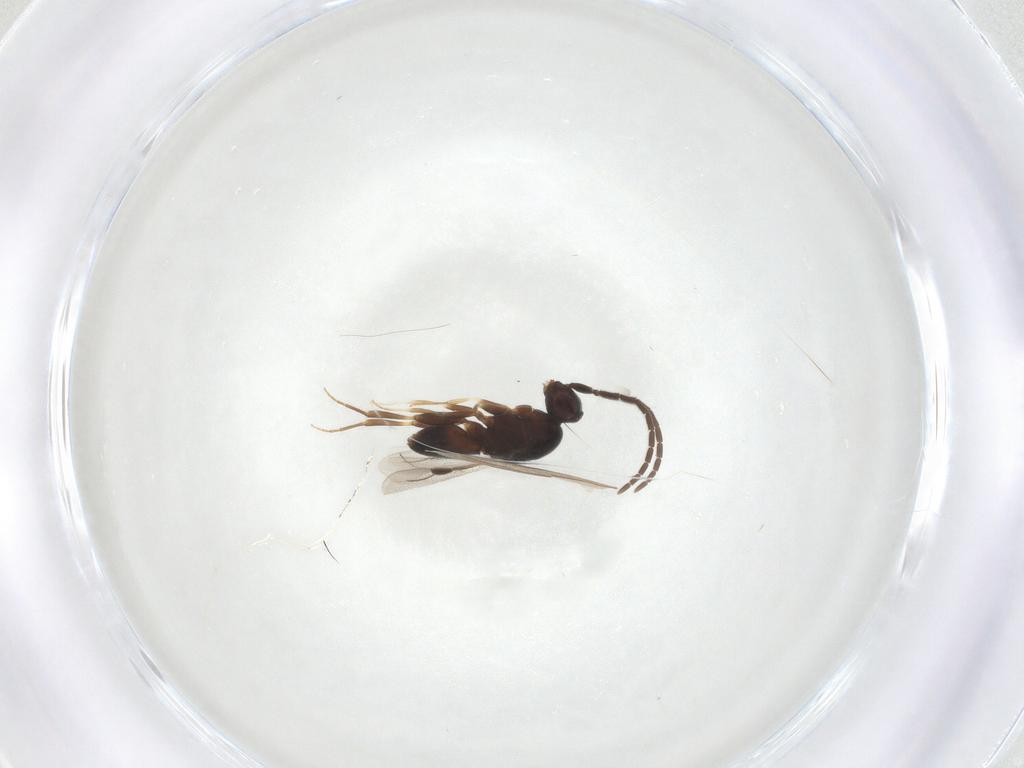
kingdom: Animalia
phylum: Arthropoda
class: Insecta
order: Hymenoptera
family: Megaspilidae
